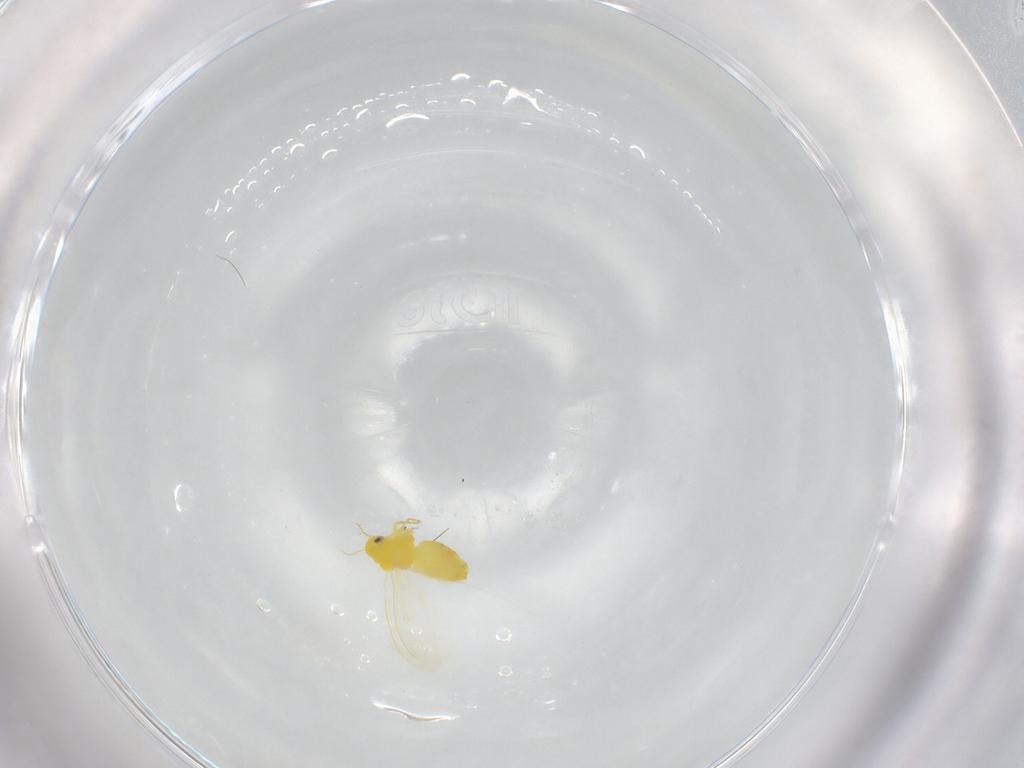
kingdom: Animalia
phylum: Arthropoda
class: Insecta
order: Hemiptera
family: Aleyrodidae
